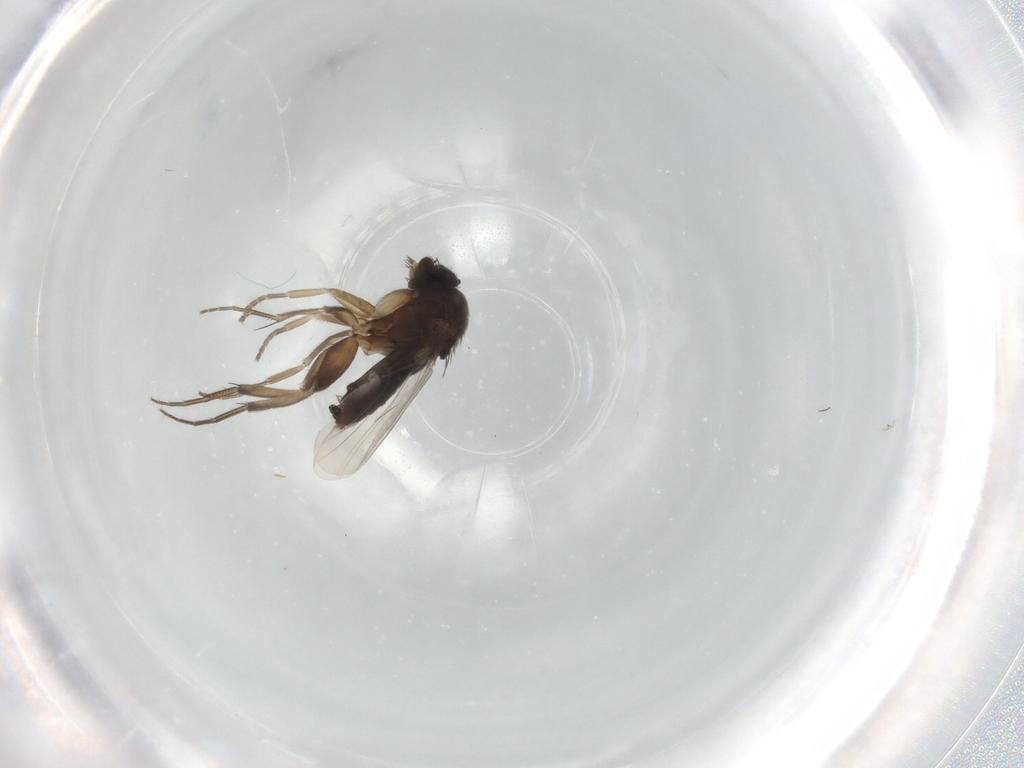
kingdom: Animalia
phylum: Arthropoda
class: Insecta
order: Diptera
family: Phoridae
